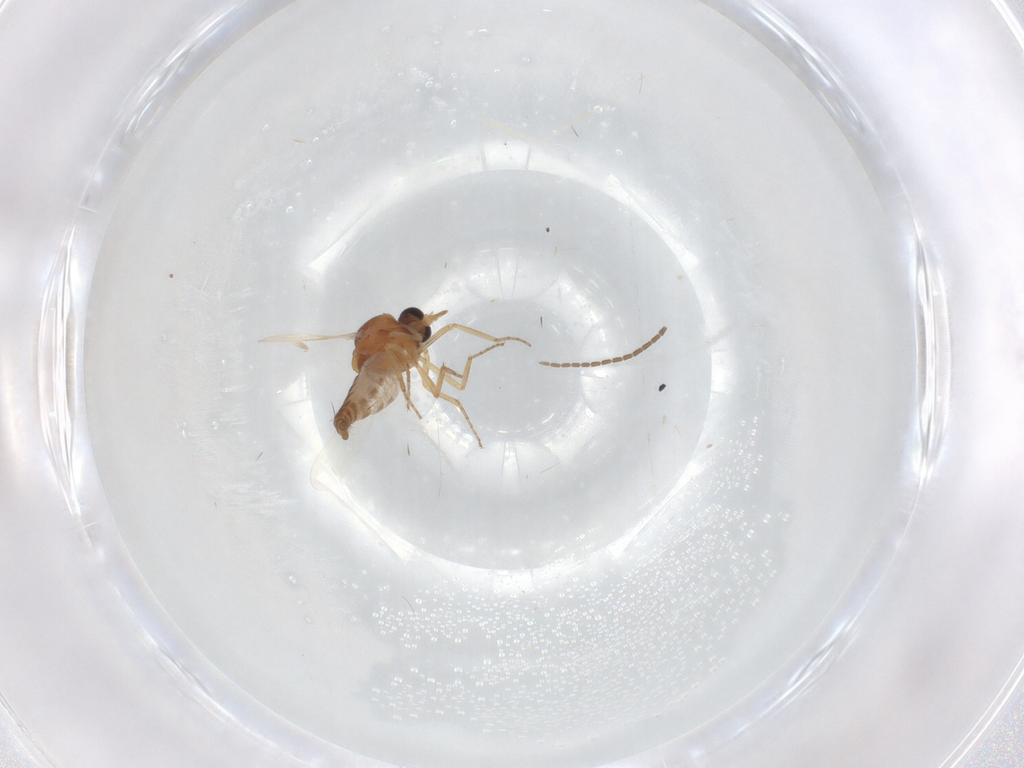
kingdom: Animalia
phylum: Arthropoda
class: Insecta
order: Diptera
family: Ceratopogonidae
